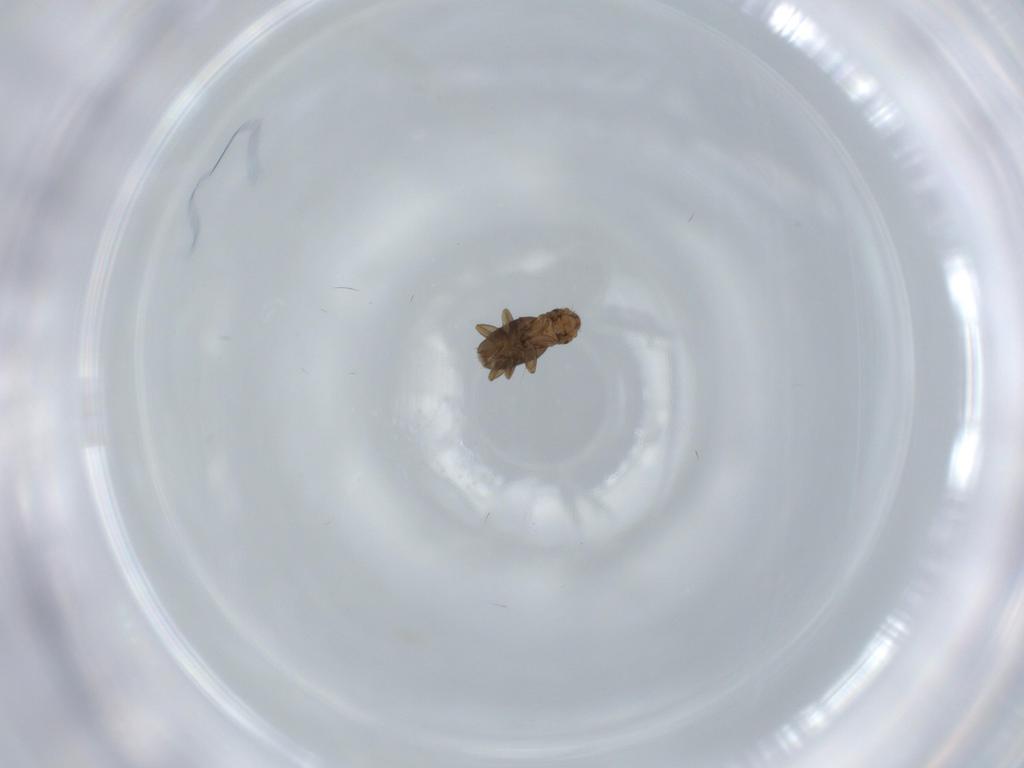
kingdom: Animalia
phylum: Arthropoda
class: Insecta
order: Diptera
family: Phoridae
